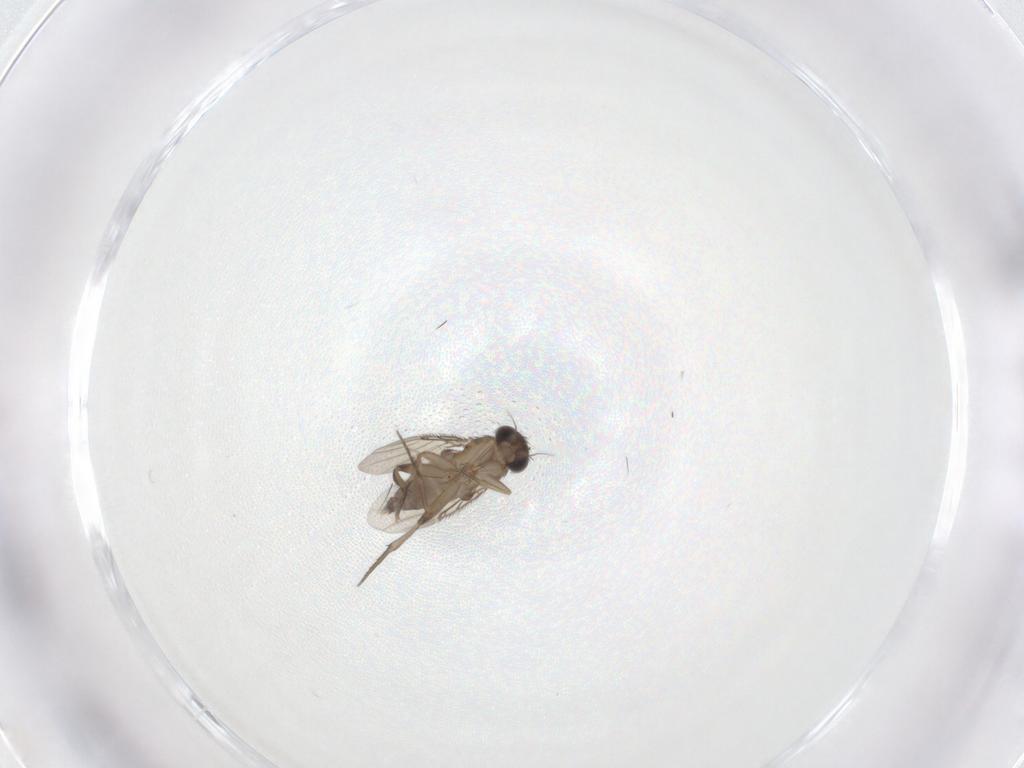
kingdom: Animalia
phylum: Arthropoda
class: Insecta
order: Diptera
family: Phoridae
